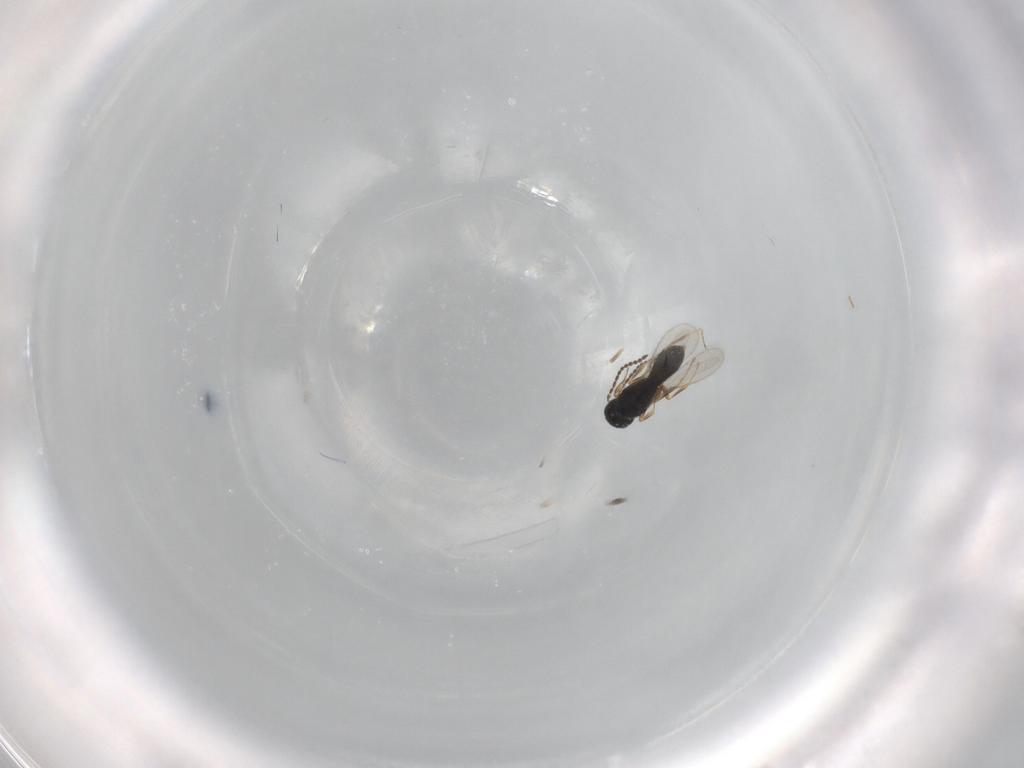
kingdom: Animalia
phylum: Arthropoda
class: Insecta
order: Hymenoptera
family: Scelionidae
